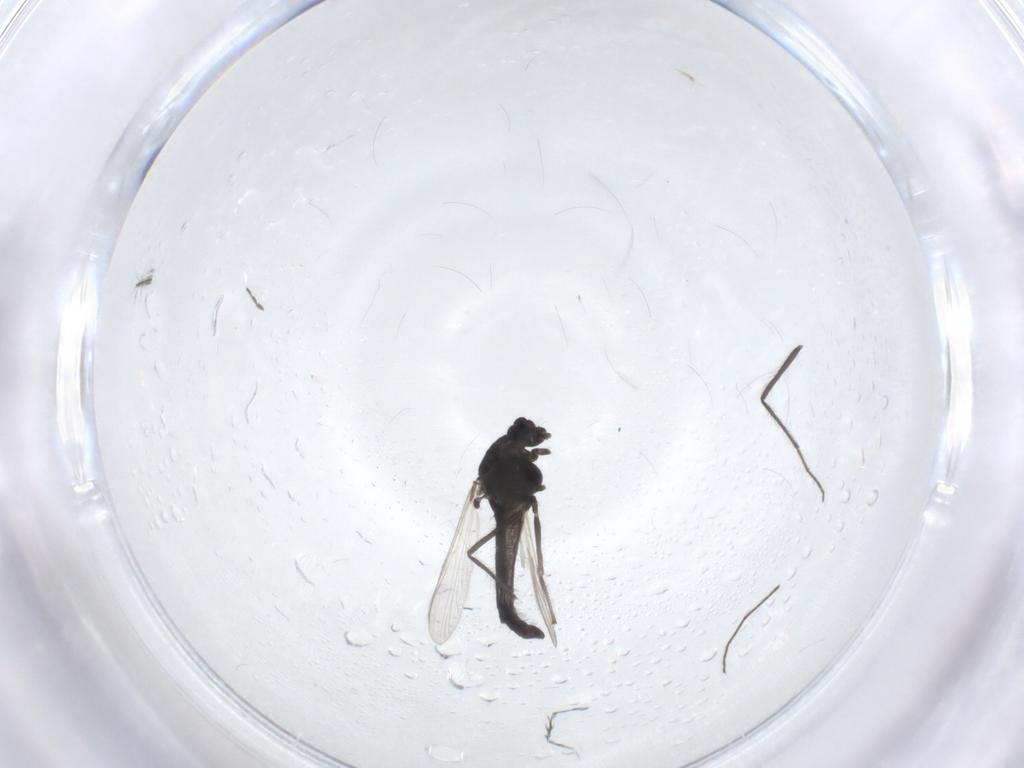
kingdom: Animalia
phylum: Arthropoda
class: Insecta
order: Diptera
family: Chironomidae
